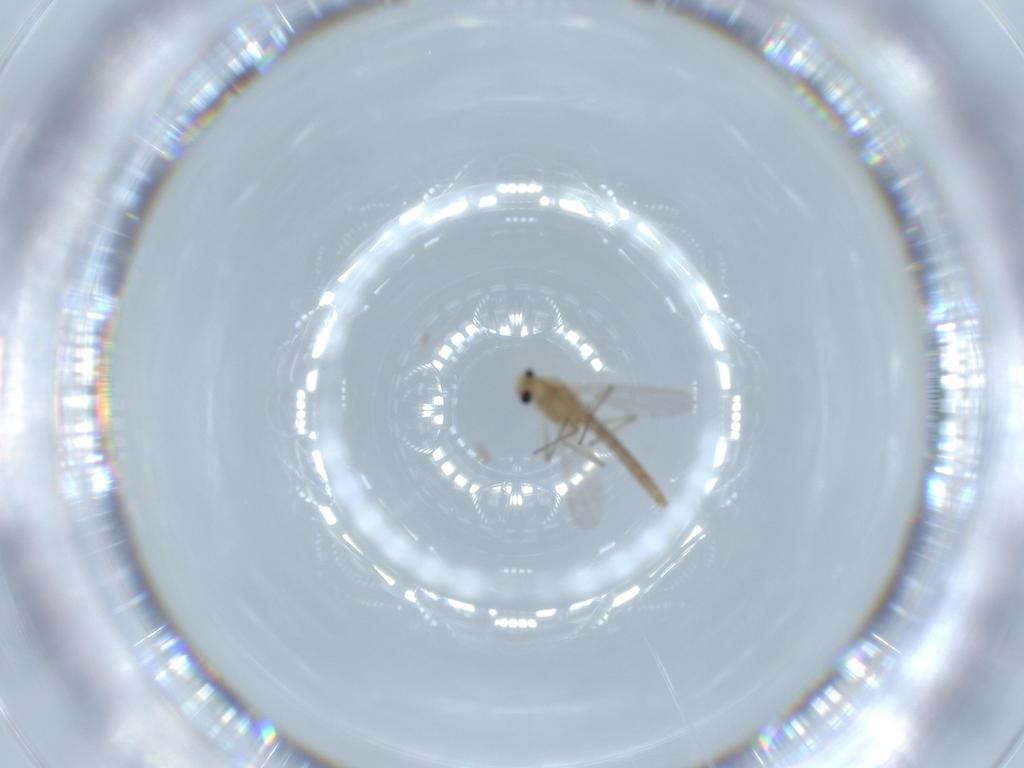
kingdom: Animalia
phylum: Arthropoda
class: Insecta
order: Diptera
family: Chironomidae
